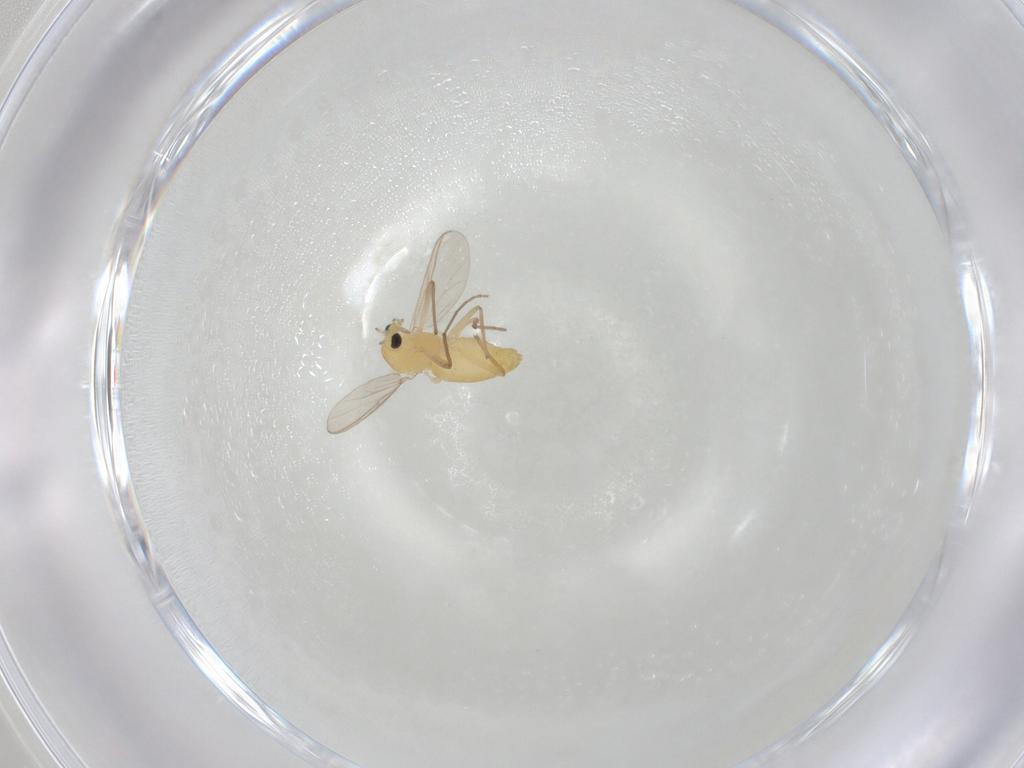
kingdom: Animalia
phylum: Arthropoda
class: Insecta
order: Diptera
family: Chironomidae
